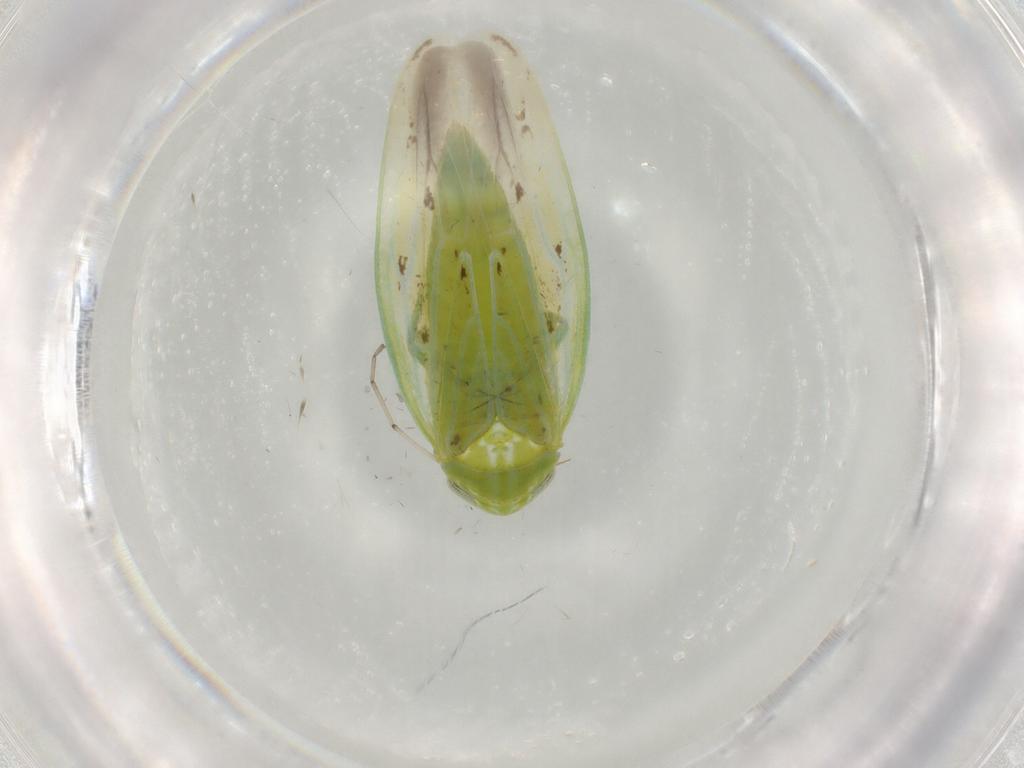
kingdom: Animalia
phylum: Arthropoda
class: Insecta
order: Hemiptera
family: Cicadellidae
